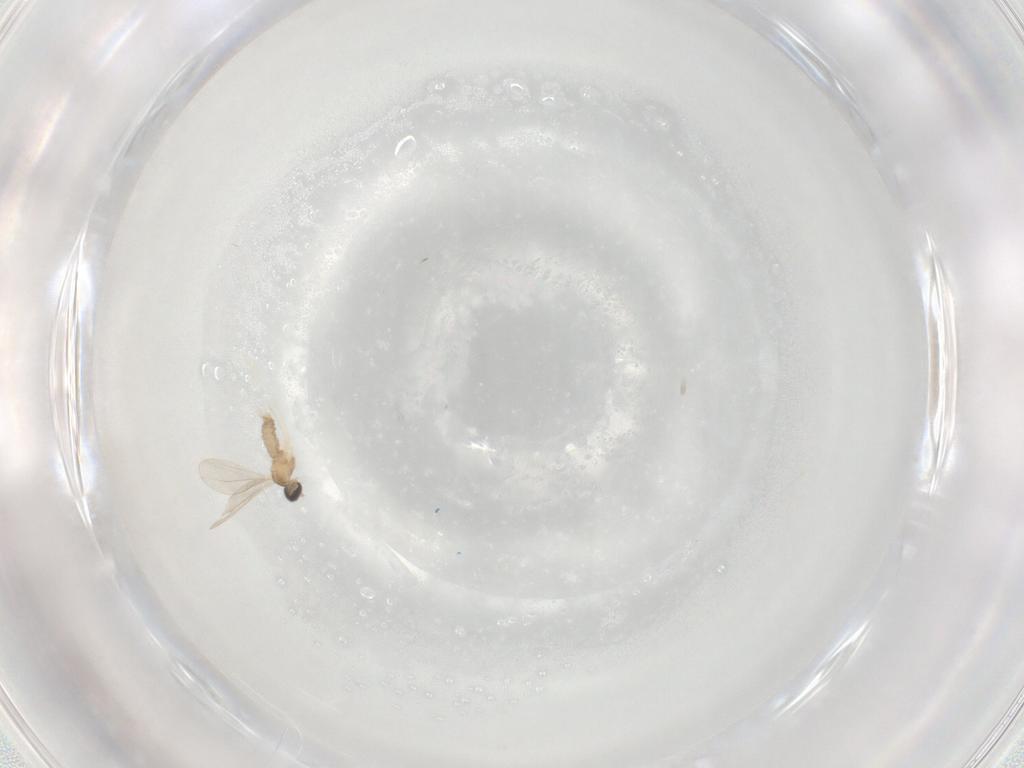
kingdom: Animalia
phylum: Arthropoda
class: Insecta
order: Diptera
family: Cecidomyiidae
